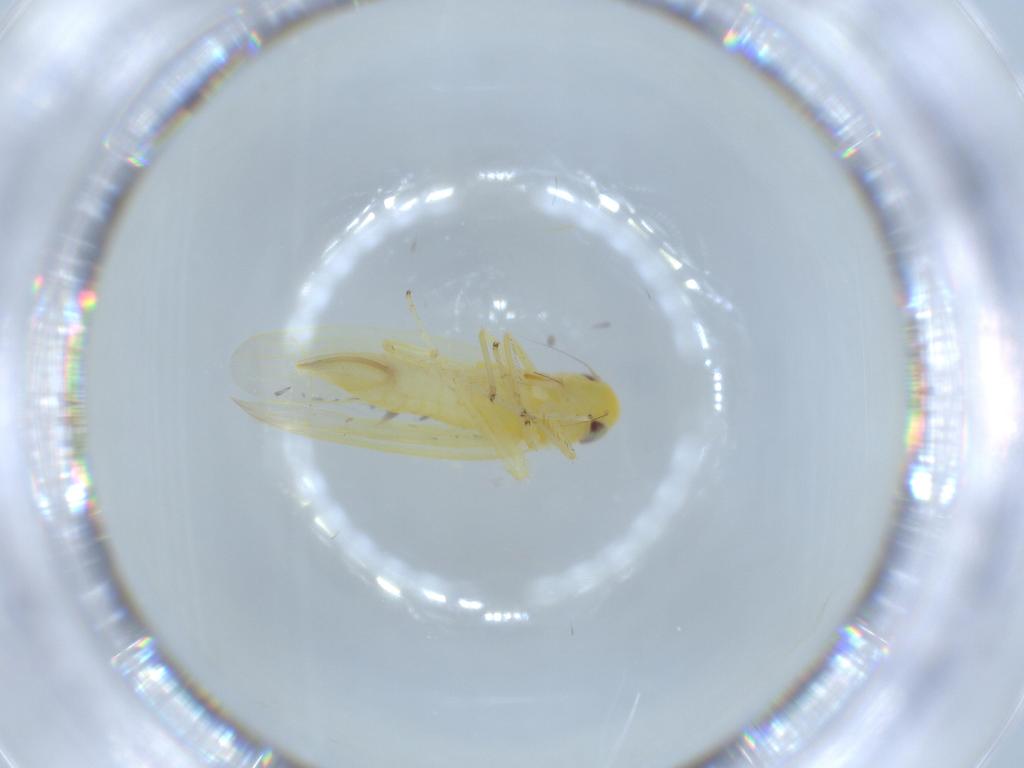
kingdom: Animalia
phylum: Arthropoda
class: Insecta
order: Hemiptera
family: Cicadellidae
